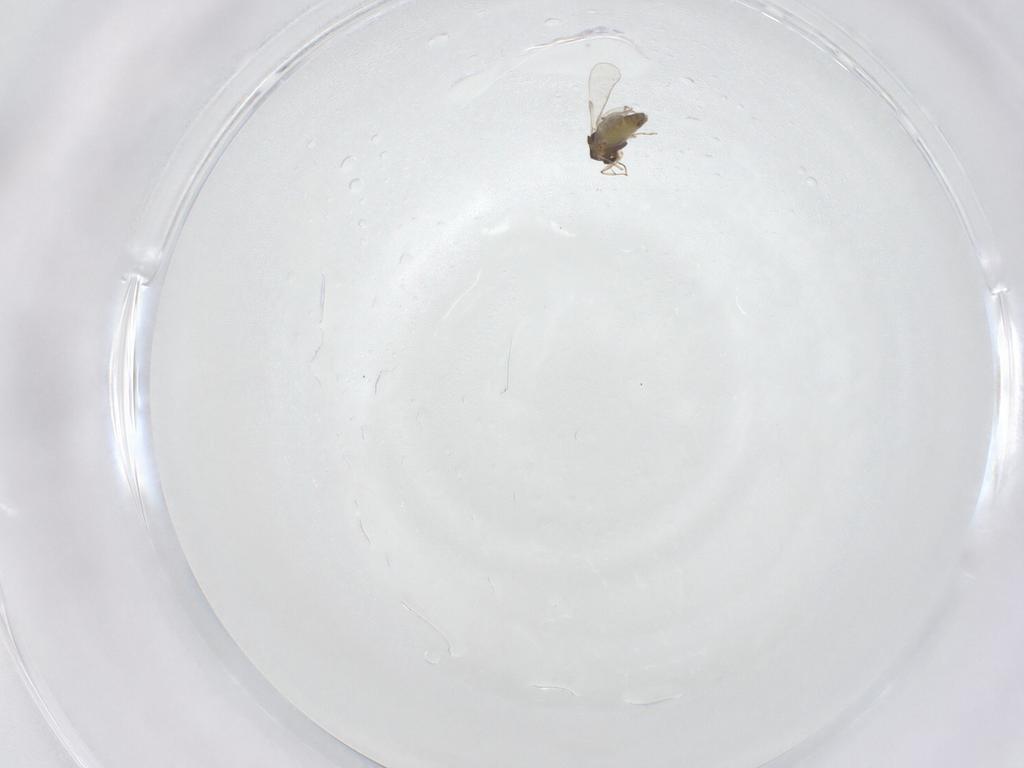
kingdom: Animalia
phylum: Arthropoda
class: Insecta
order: Diptera
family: Chironomidae
